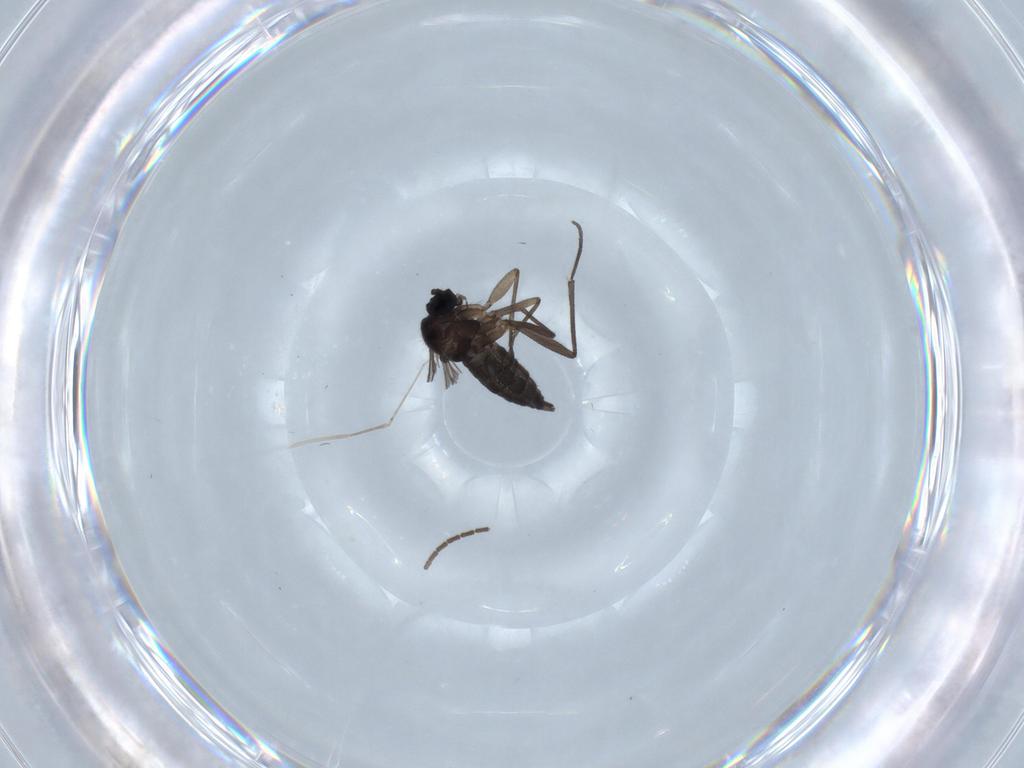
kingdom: Animalia
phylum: Arthropoda
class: Insecta
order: Diptera
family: Sciaridae
